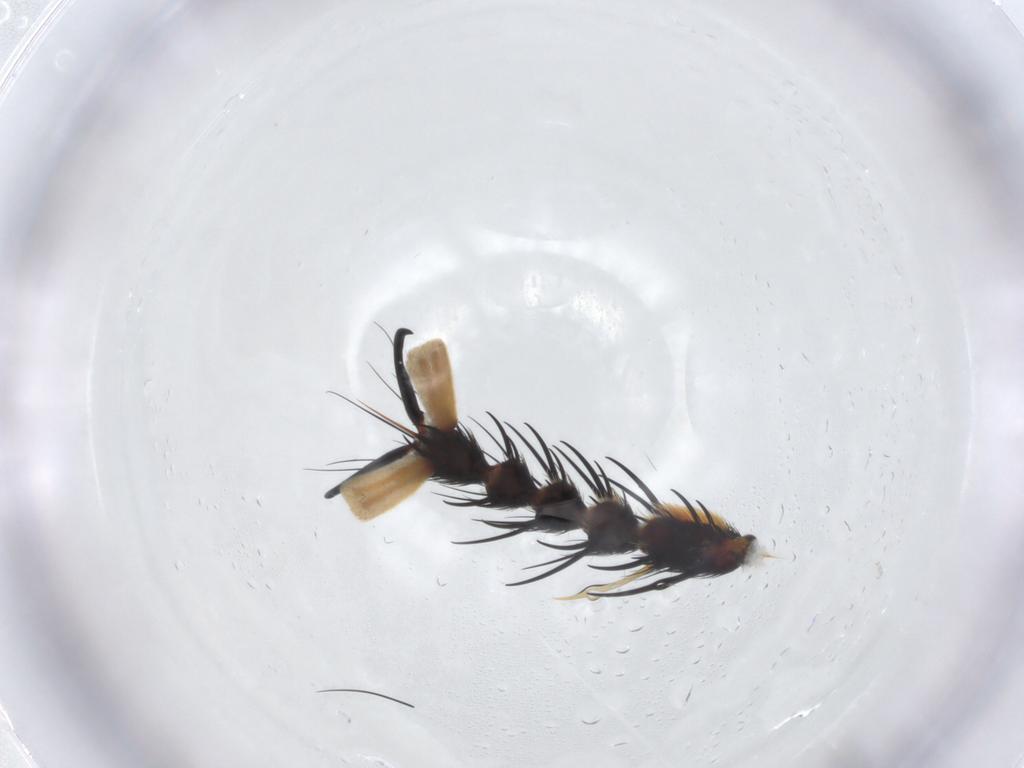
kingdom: Animalia
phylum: Arthropoda
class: Insecta
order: Diptera
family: Asilidae
